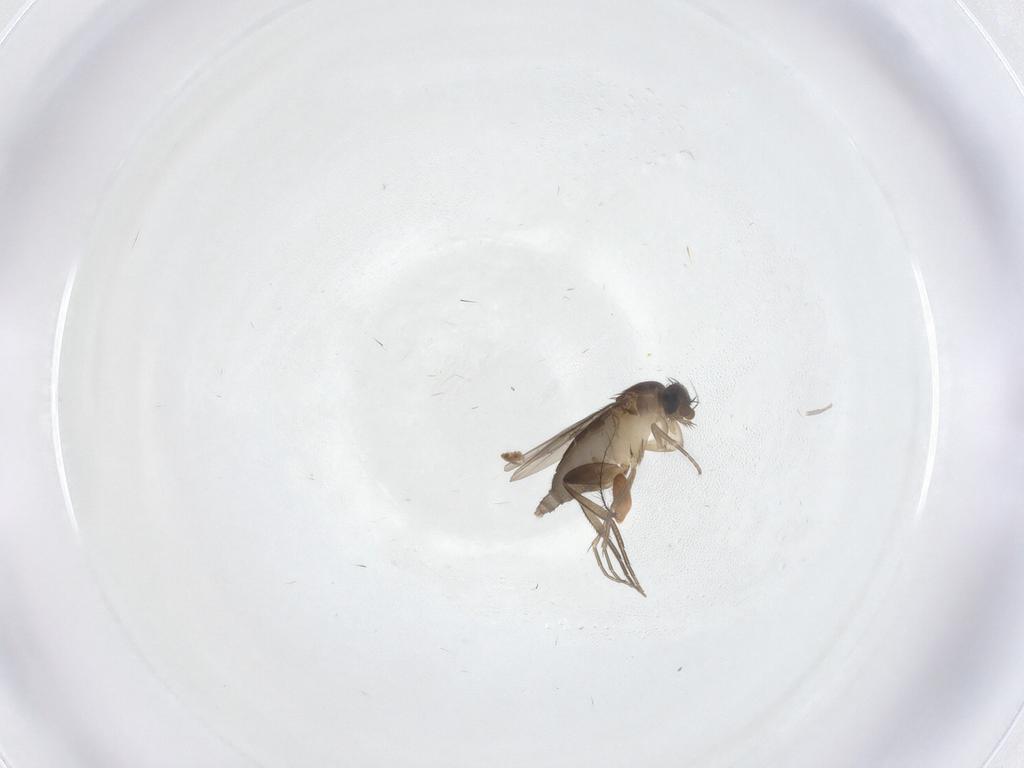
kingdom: Animalia
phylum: Arthropoda
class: Insecta
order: Diptera
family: Phoridae
